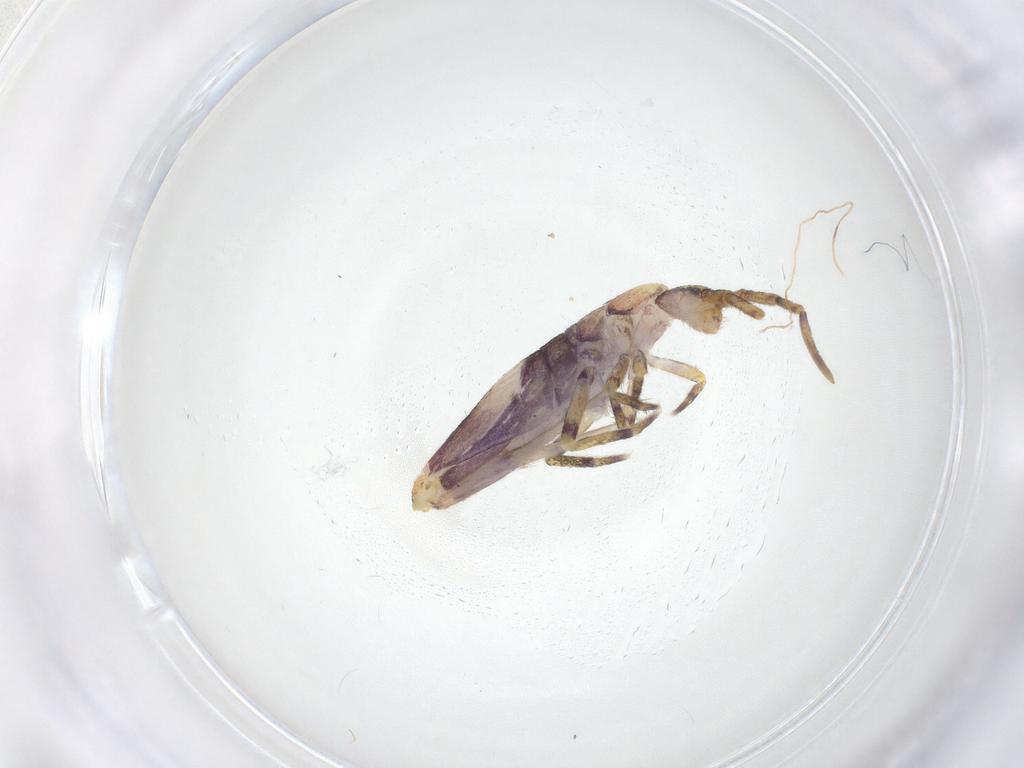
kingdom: Animalia
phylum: Arthropoda
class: Collembola
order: Entomobryomorpha
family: Entomobryidae
